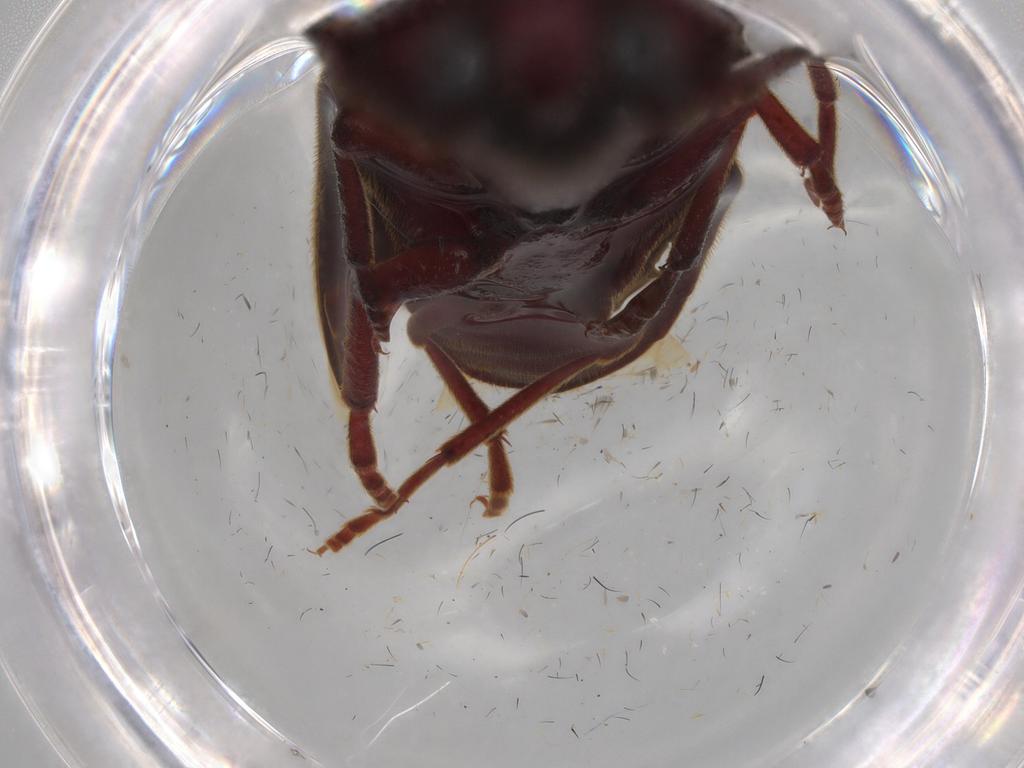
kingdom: Animalia
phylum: Arthropoda
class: Insecta
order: Coleoptera
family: Eucnemidae
